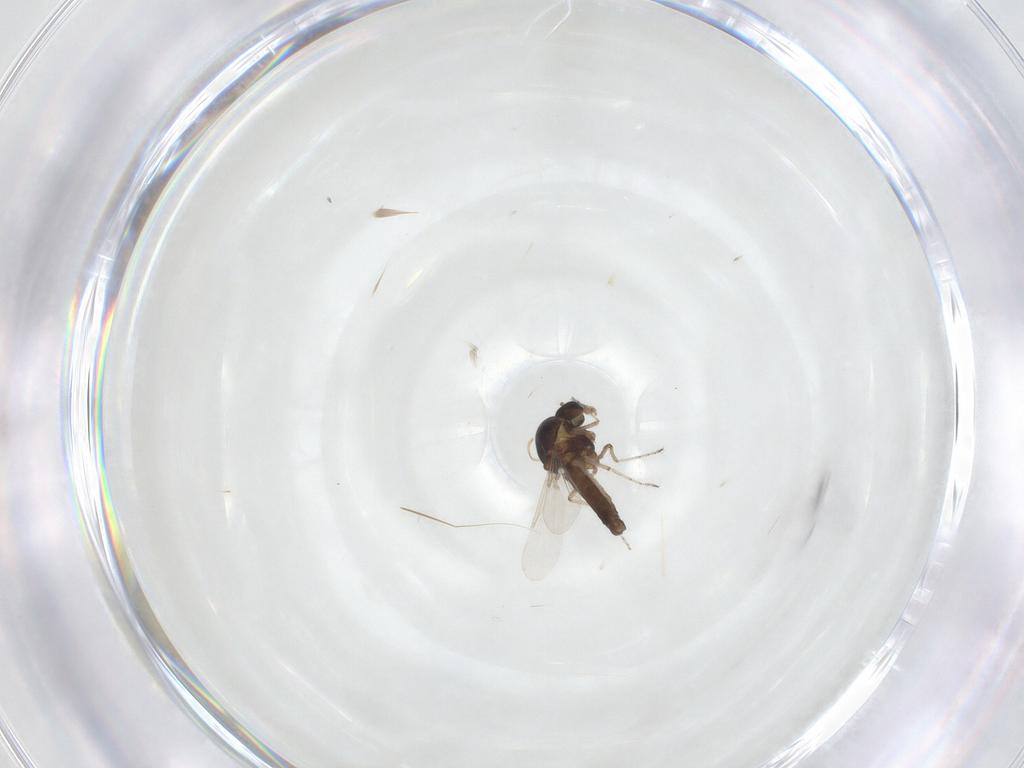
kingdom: Animalia
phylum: Arthropoda
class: Insecta
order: Diptera
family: Ceratopogonidae
